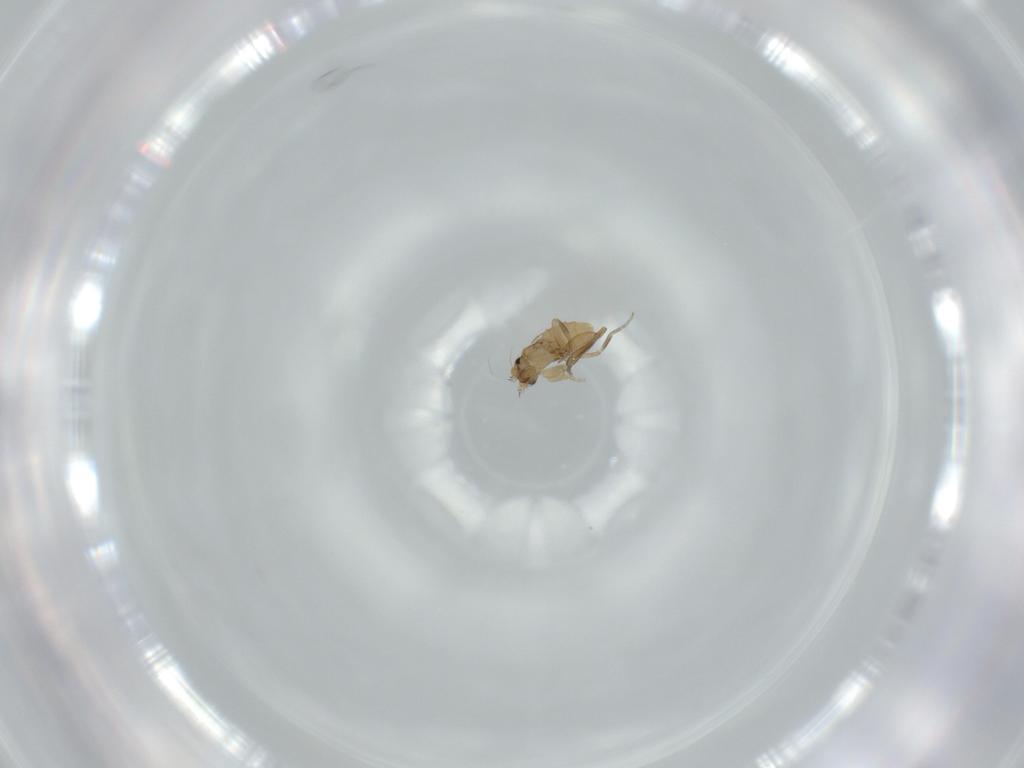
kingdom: Animalia
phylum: Arthropoda
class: Insecta
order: Diptera
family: Phoridae
